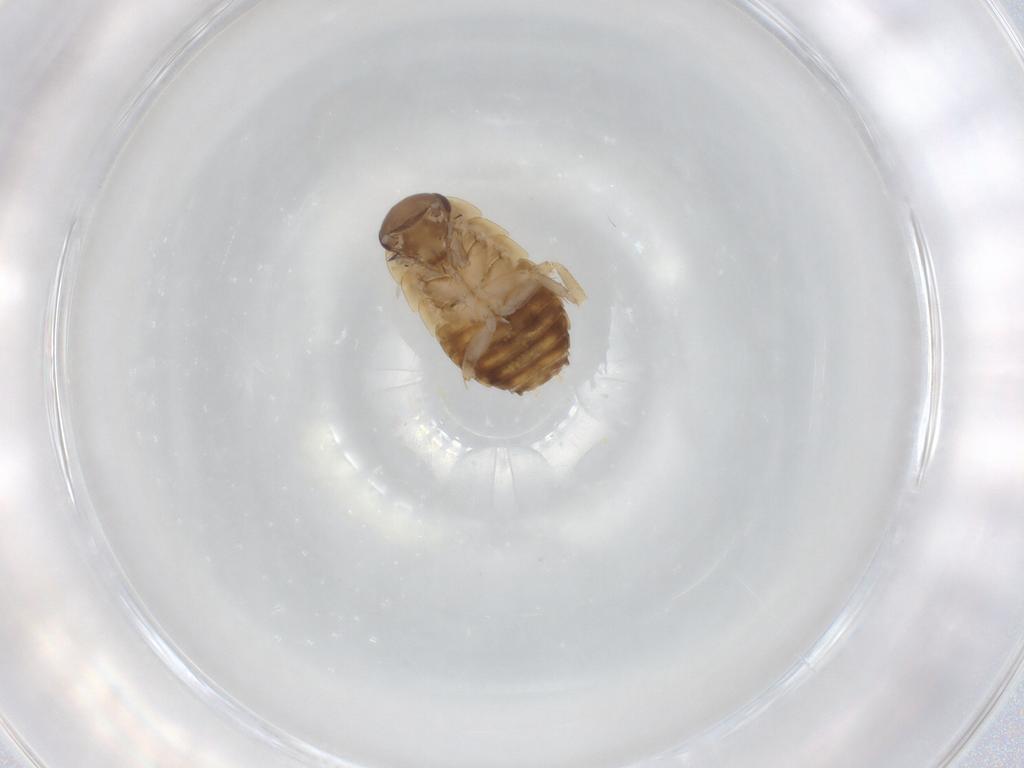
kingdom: Animalia
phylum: Arthropoda
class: Insecta
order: Blattodea
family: Pseudophyllodromiidae
